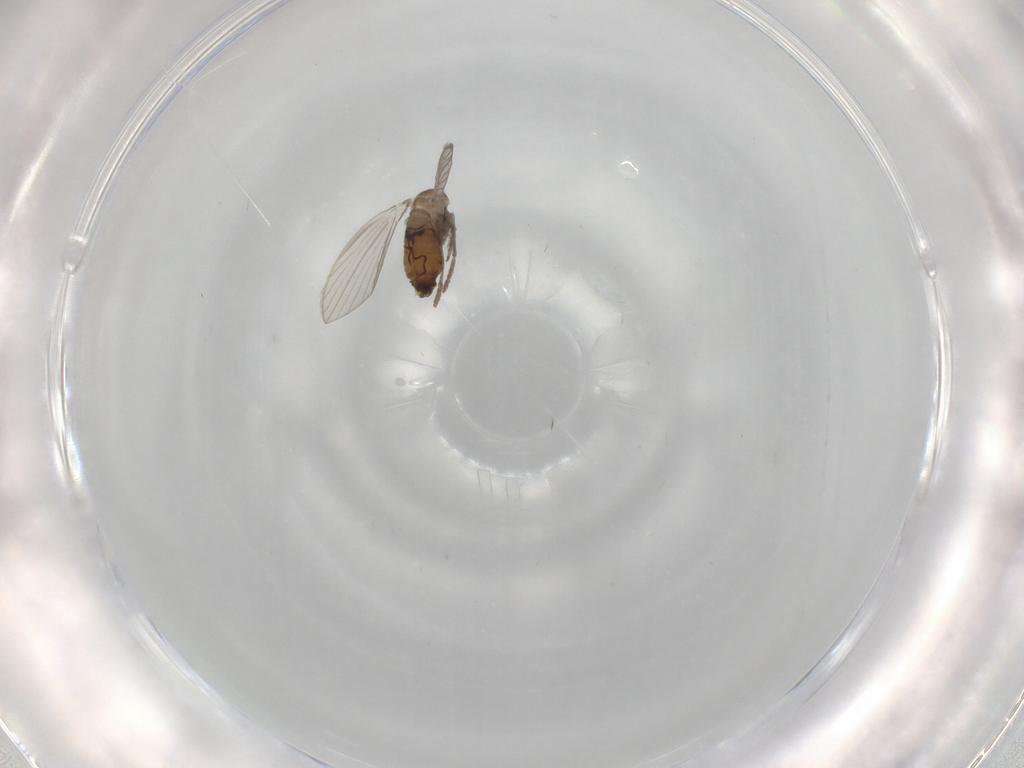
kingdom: Animalia
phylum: Arthropoda
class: Insecta
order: Diptera
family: Psychodidae
